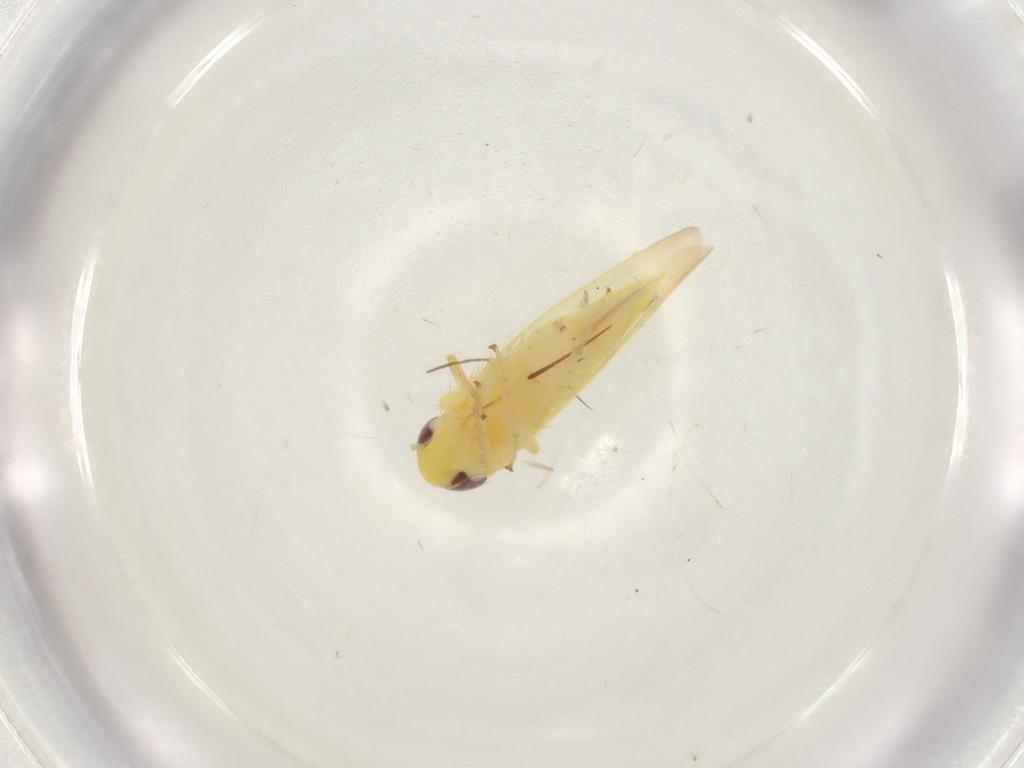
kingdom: Animalia
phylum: Arthropoda
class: Insecta
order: Hemiptera
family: Cicadellidae
